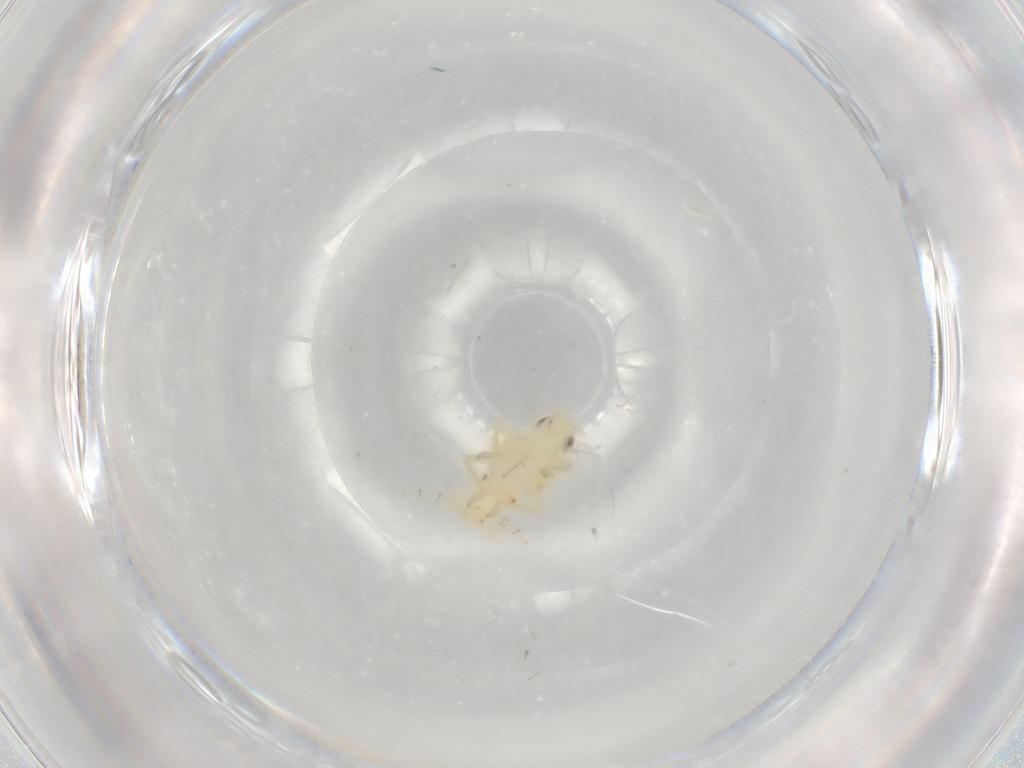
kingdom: Animalia
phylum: Arthropoda
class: Insecta
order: Hemiptera
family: Tropiduchidae
